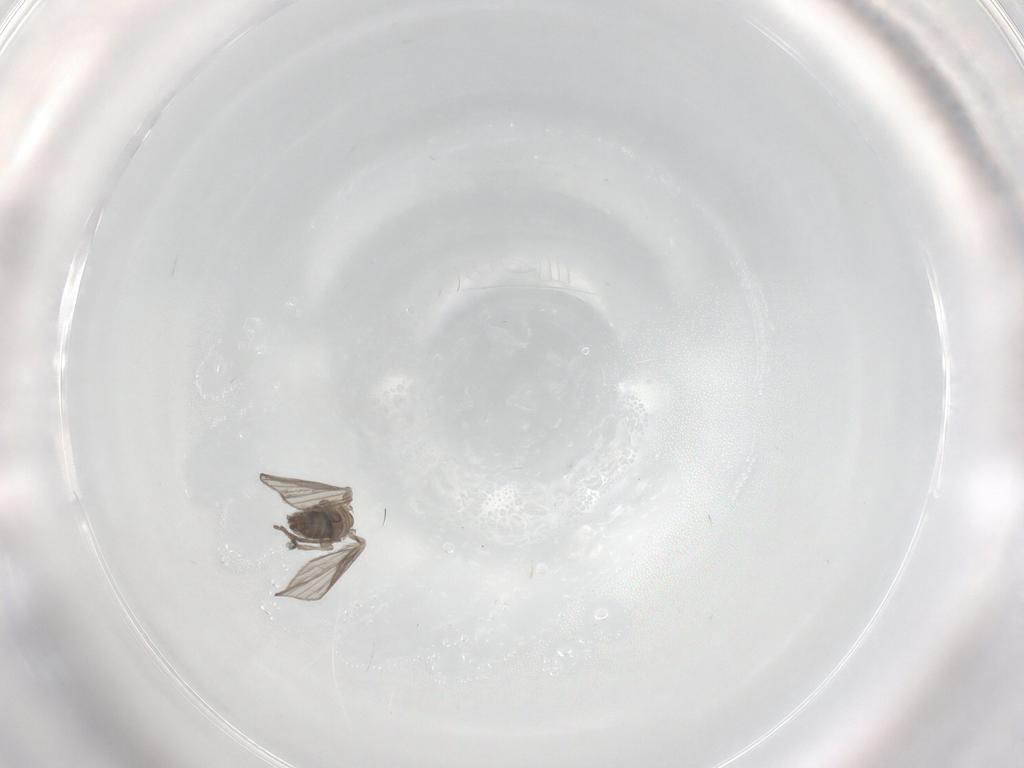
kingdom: Animalia
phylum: Arthropoda
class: Insecta
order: Diptera
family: Psychodidae
